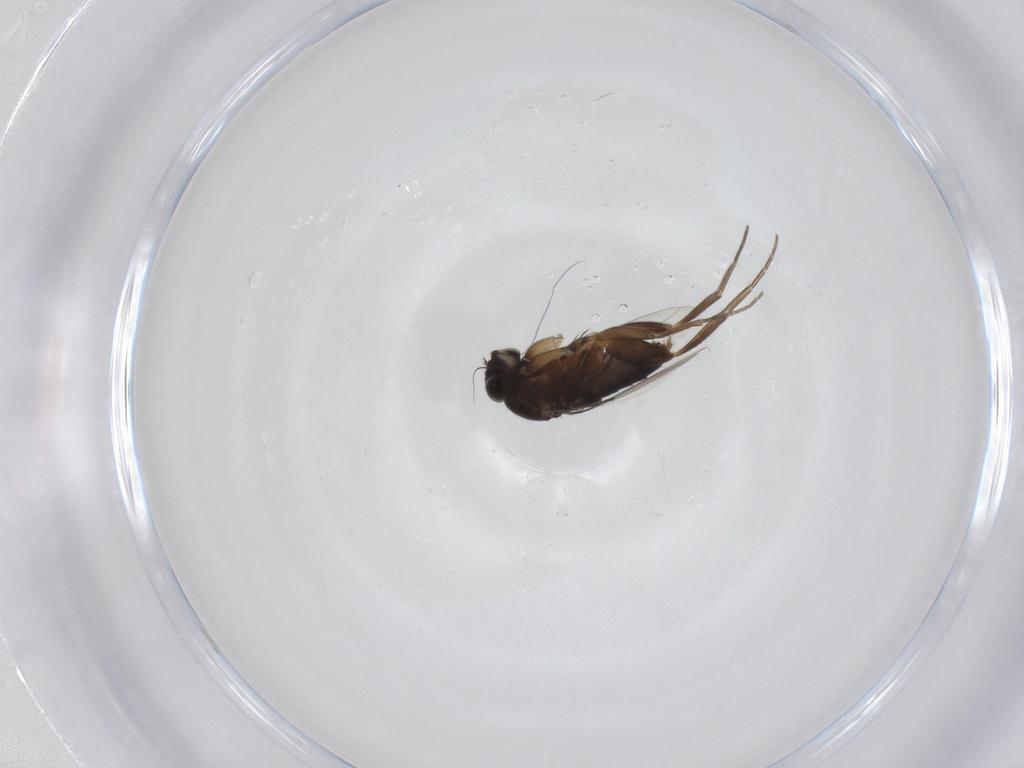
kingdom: Animalia
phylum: Arthropoda
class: Insecta
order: Diptera
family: Phoridae
